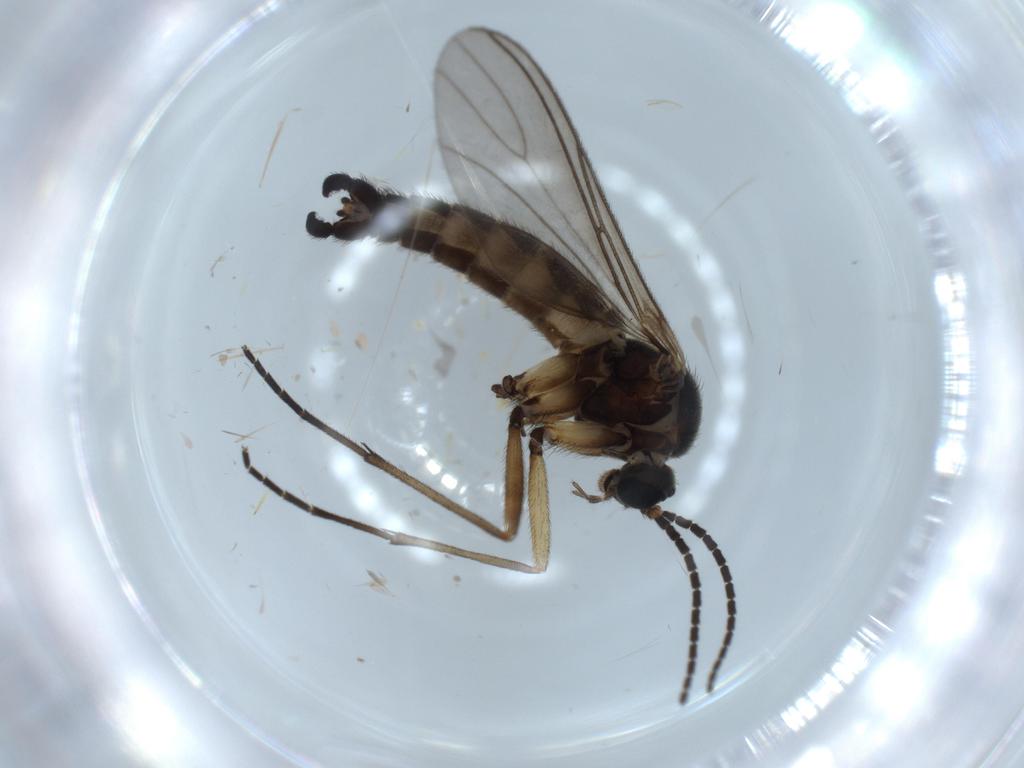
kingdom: Animalia
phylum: Arthropoda
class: Insecta
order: Diptera
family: Sciaridae
